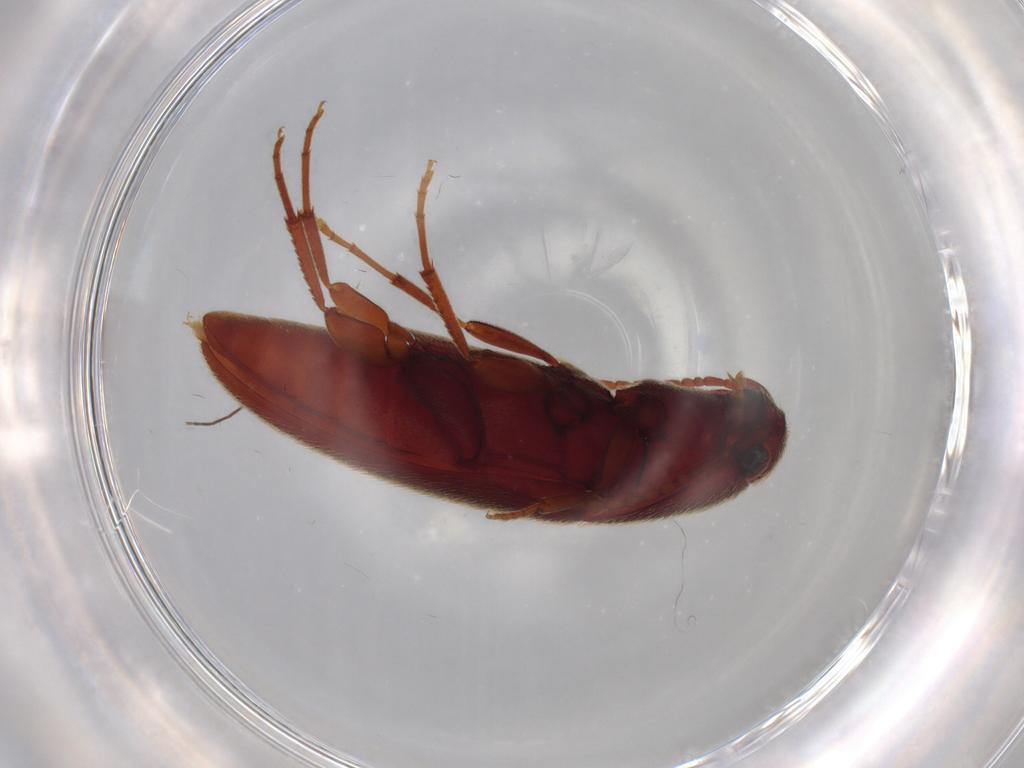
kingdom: Animalia
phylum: Arthropoda
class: Insecta
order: Coleoptera
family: Eucnemidae
